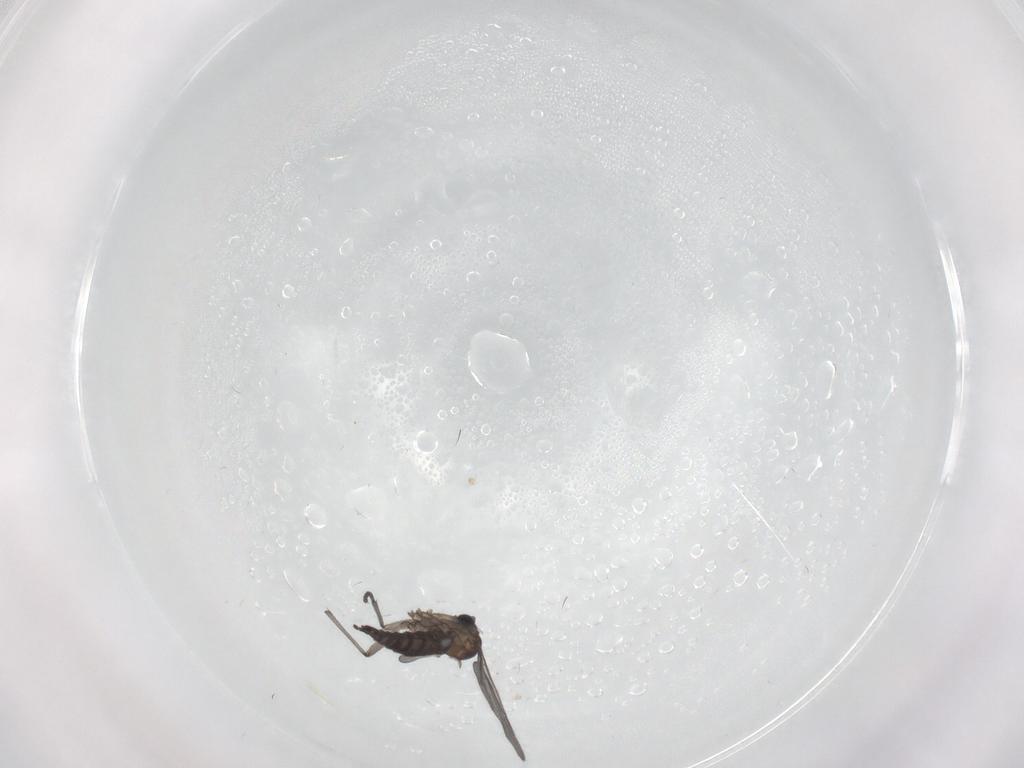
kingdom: Animalia
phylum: Arthropoda
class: Insecta
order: Diptera
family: Sciaridae
